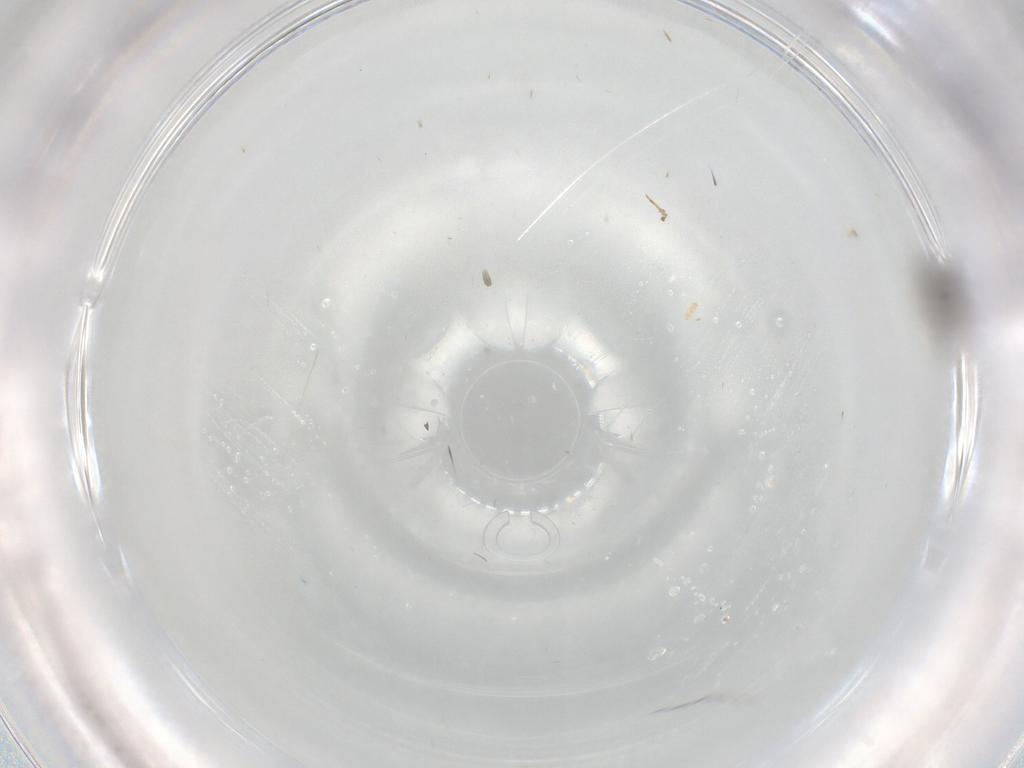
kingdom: Animalia
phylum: Arthropoda
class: Insecta
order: Diptera
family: Cecidomyiidae
